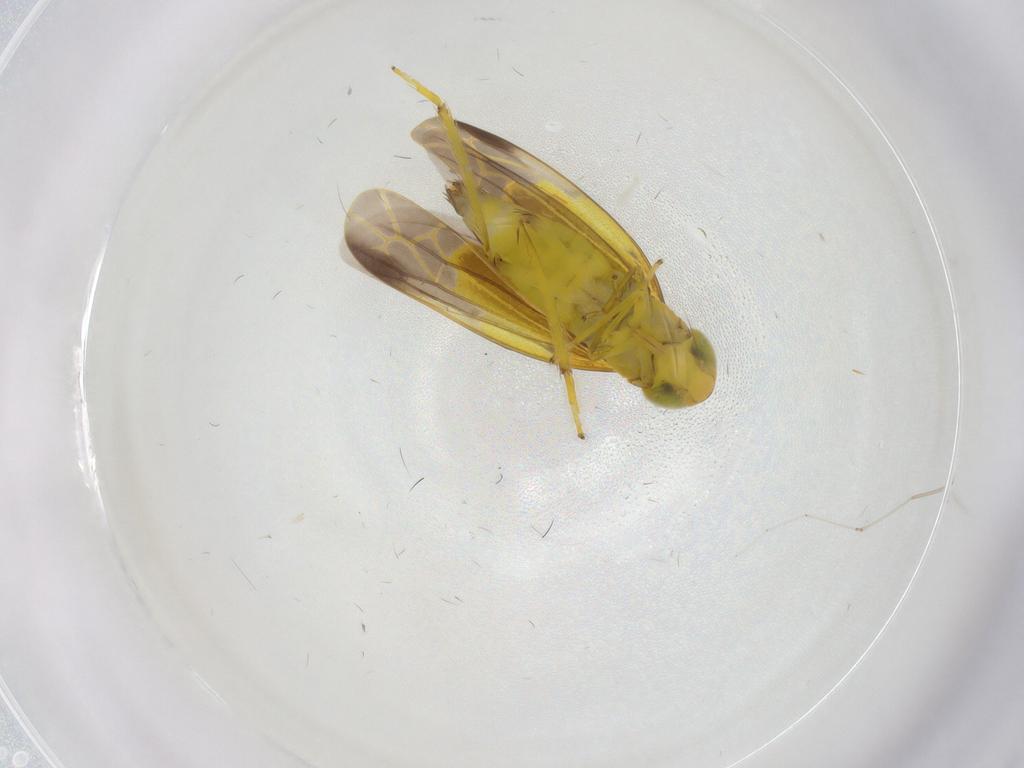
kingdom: Animalia
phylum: Arthropoda
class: Insecta
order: Hemiptera
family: Cicadellidae
